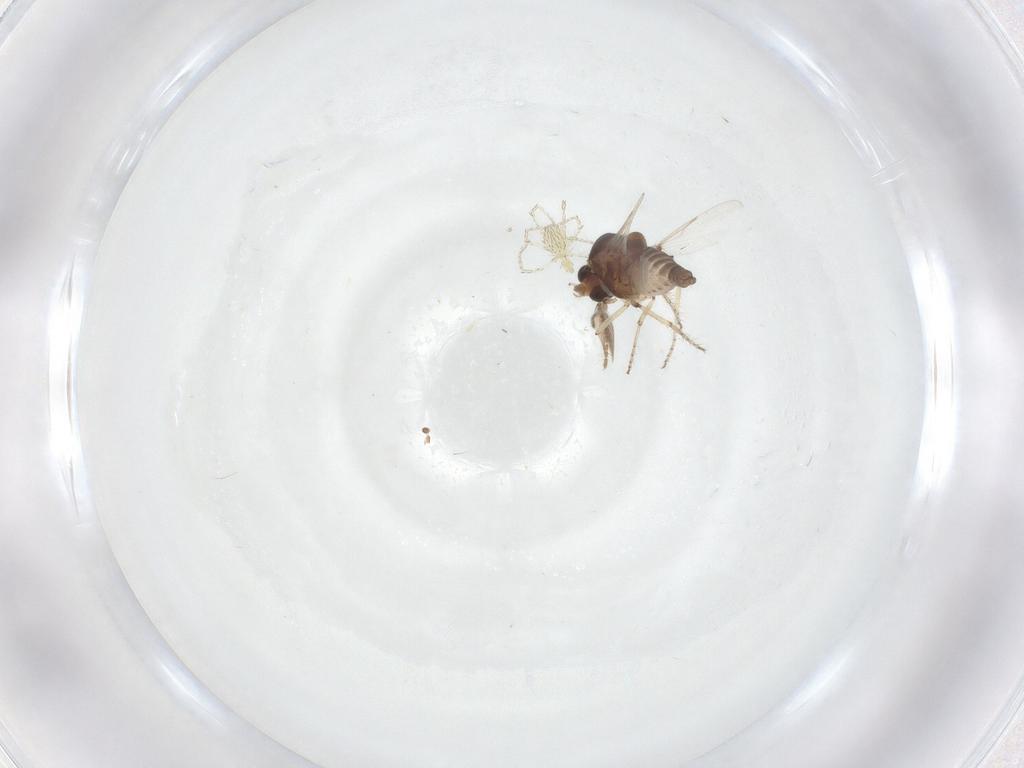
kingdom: Animalia
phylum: Arthropoda
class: Insecta
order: Diptera
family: Ceratopogonidae
